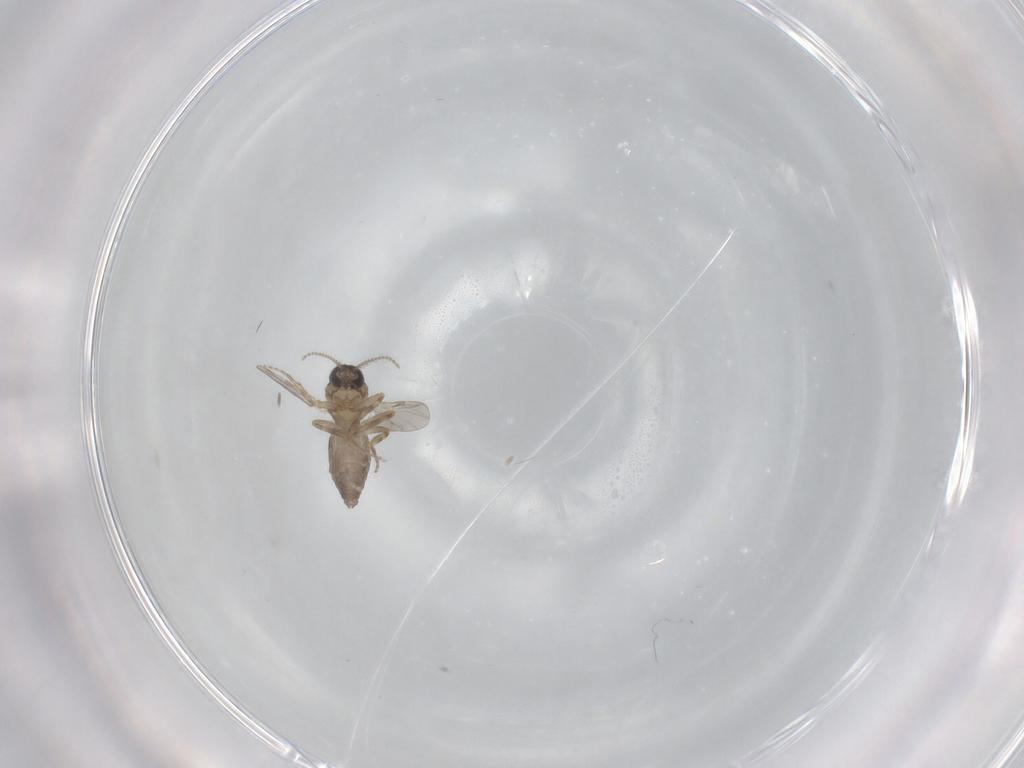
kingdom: Animalia
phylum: Arthropoda
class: Insecta
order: Diptera
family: Ceratopogonidae
